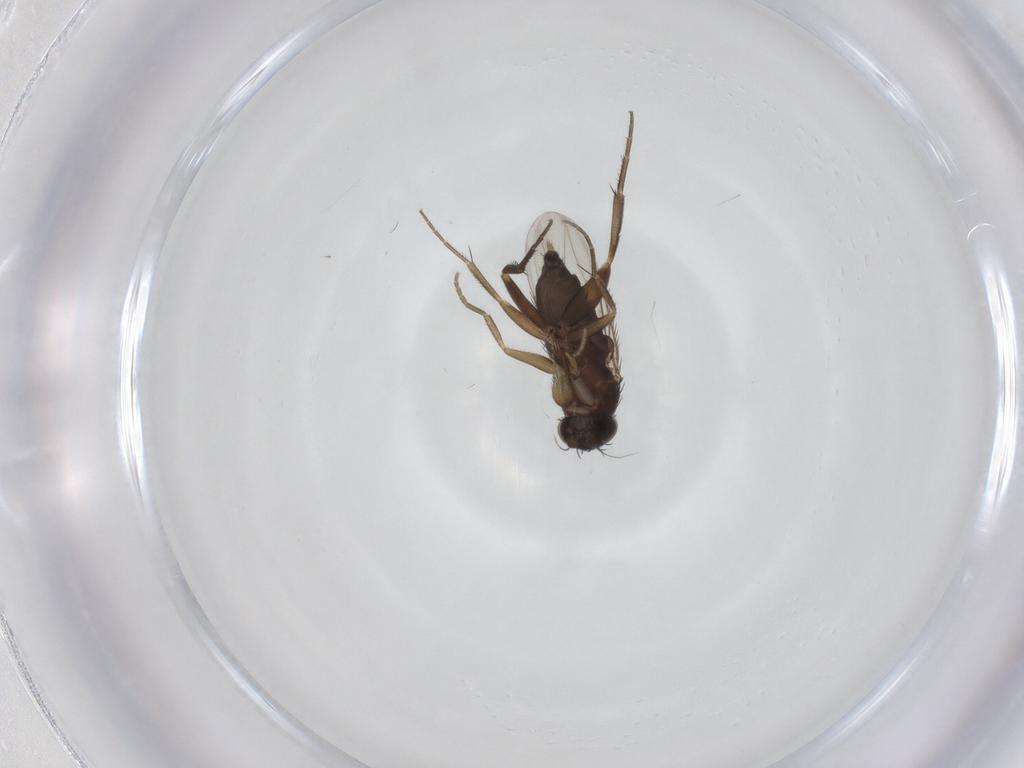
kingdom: Animalia
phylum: Arthropoda
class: Insecta
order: Diptera
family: Phoridae
